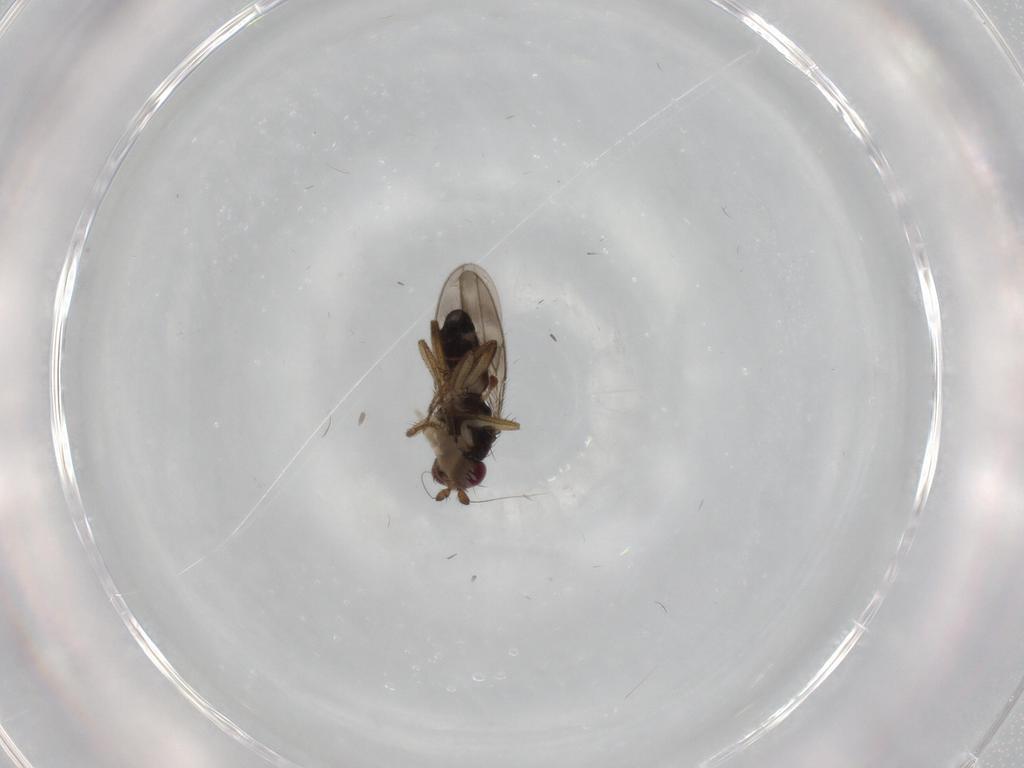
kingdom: Animalia
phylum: Arthropoda
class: Insecta
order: Diptera
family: Sphaeroceridae
